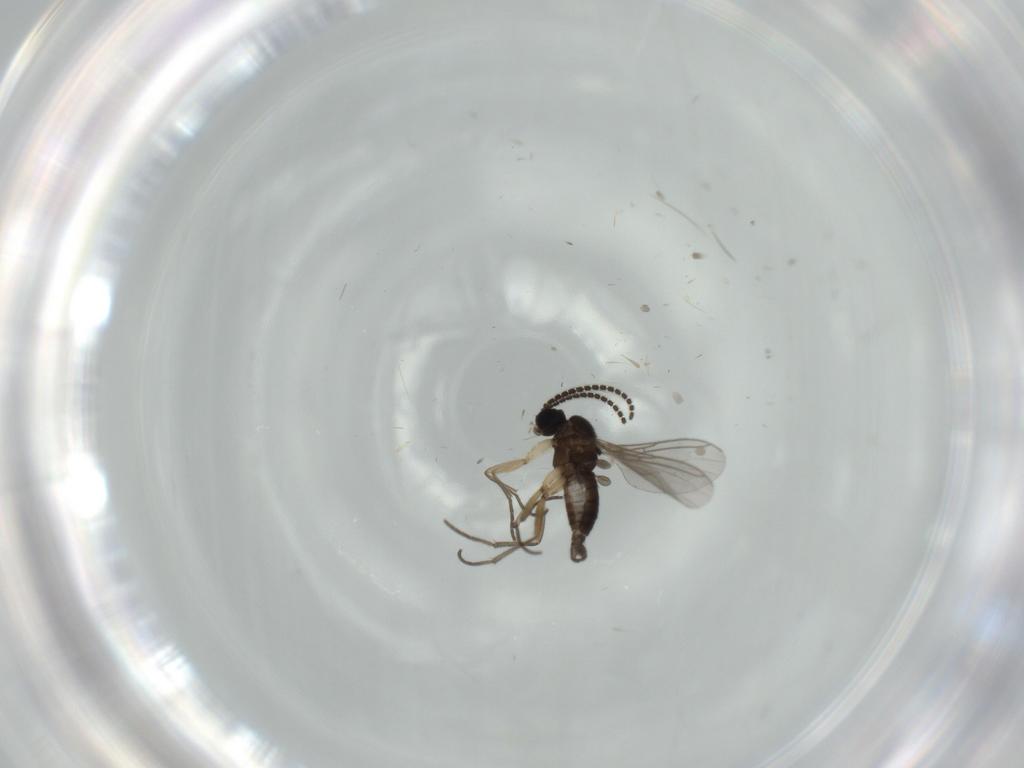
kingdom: Animalia
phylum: Arthropoda
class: Insecta
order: Diptera
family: Sciaridae
